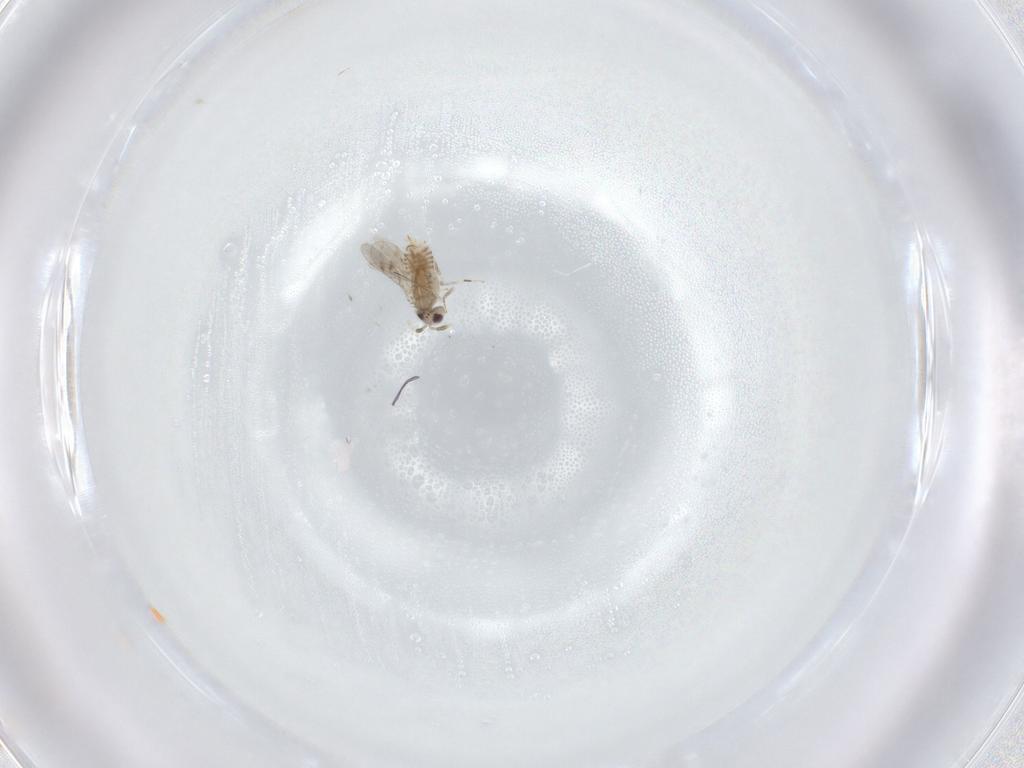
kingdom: Animalia
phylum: Arthropoda
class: Insecta
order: Hymenoptera
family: Aphelinidae
